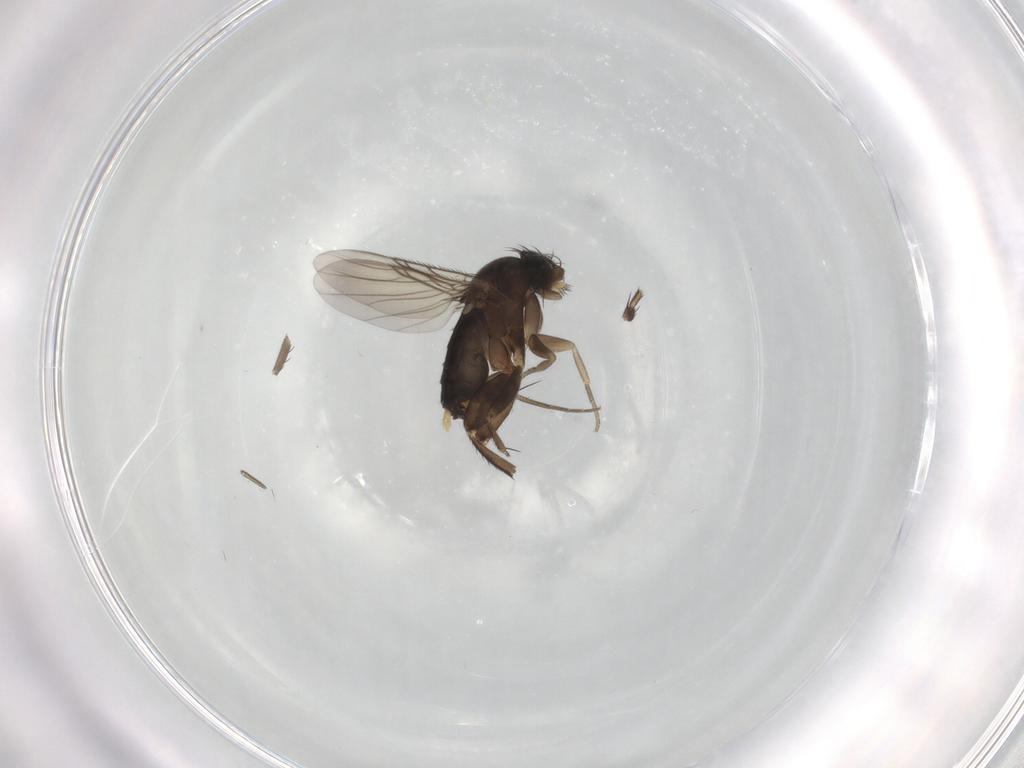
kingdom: Animalia
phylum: Arthropoda
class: Insecta
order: Diptera
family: Phoridae
